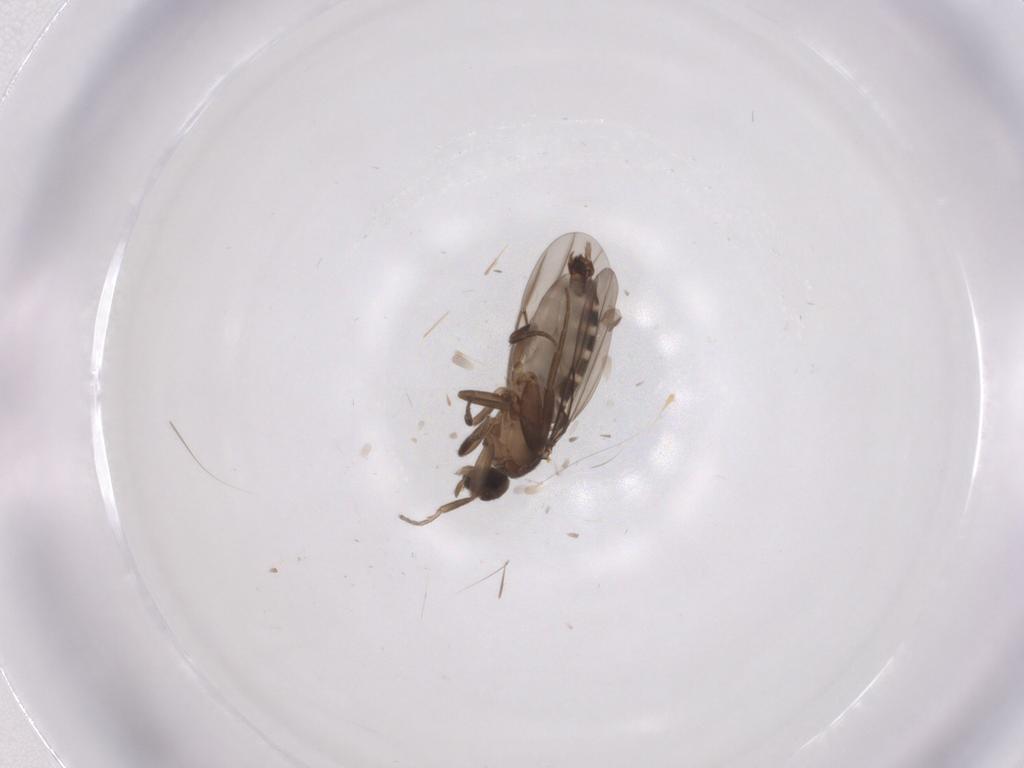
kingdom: Animalia
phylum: Arthropoda
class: Insecta
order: Diptera
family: Phoridae
